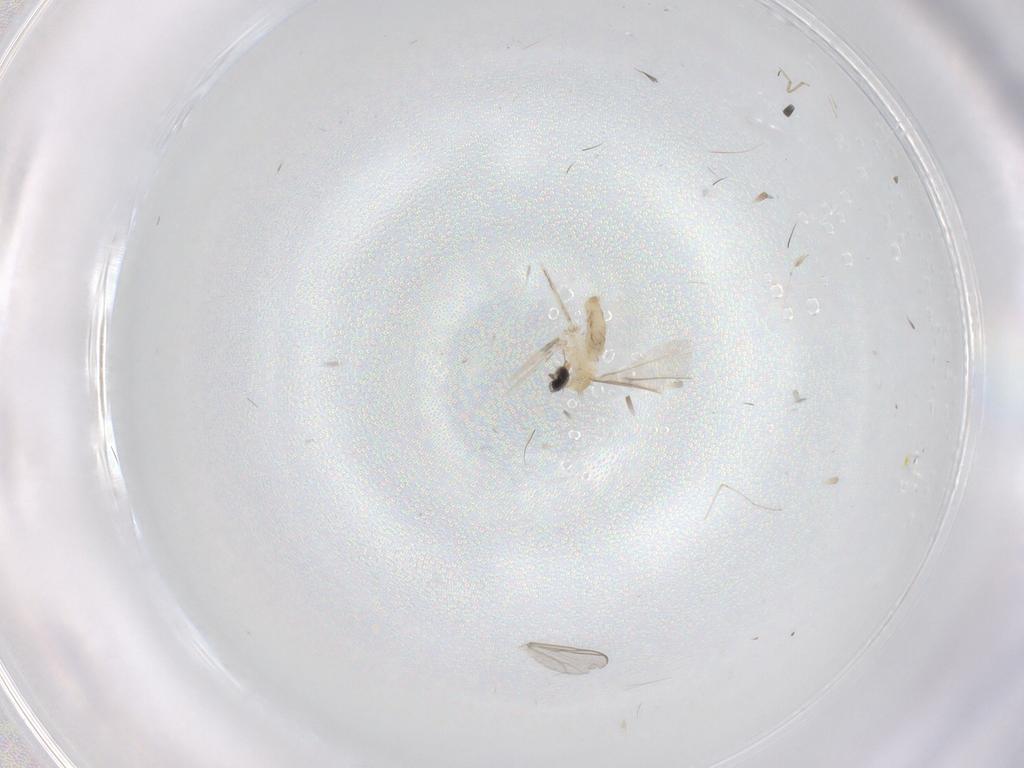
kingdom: Animalia
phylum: Arthropoda
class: Insecta
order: Diptera
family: Cecidomyiidae
